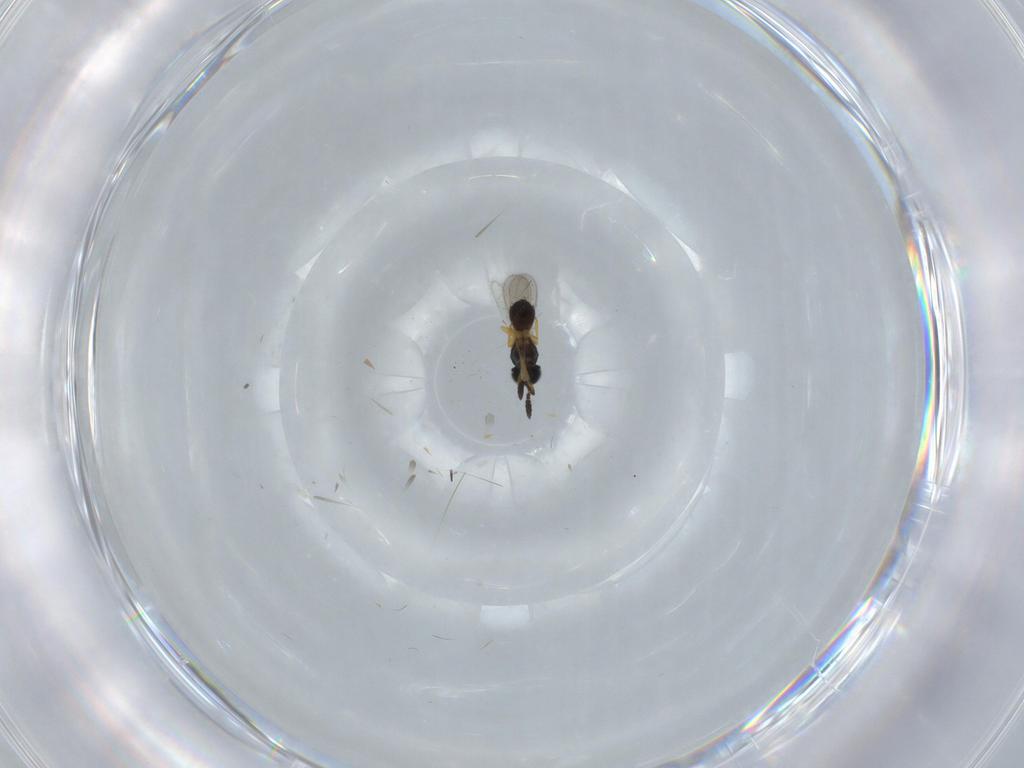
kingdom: Animalia
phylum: Arthropoda
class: Insecta
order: Hymenoptera
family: Scelionidae
